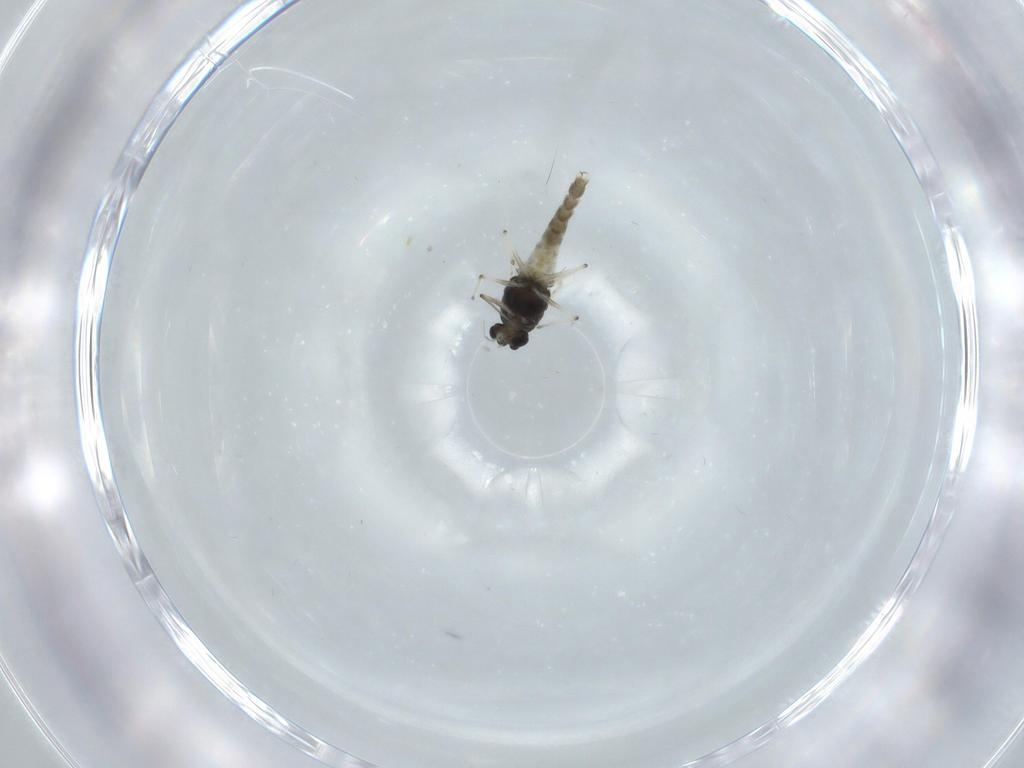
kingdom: Animalia
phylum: Arthropoda
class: Insecta
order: Diptera
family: Chironomidae
